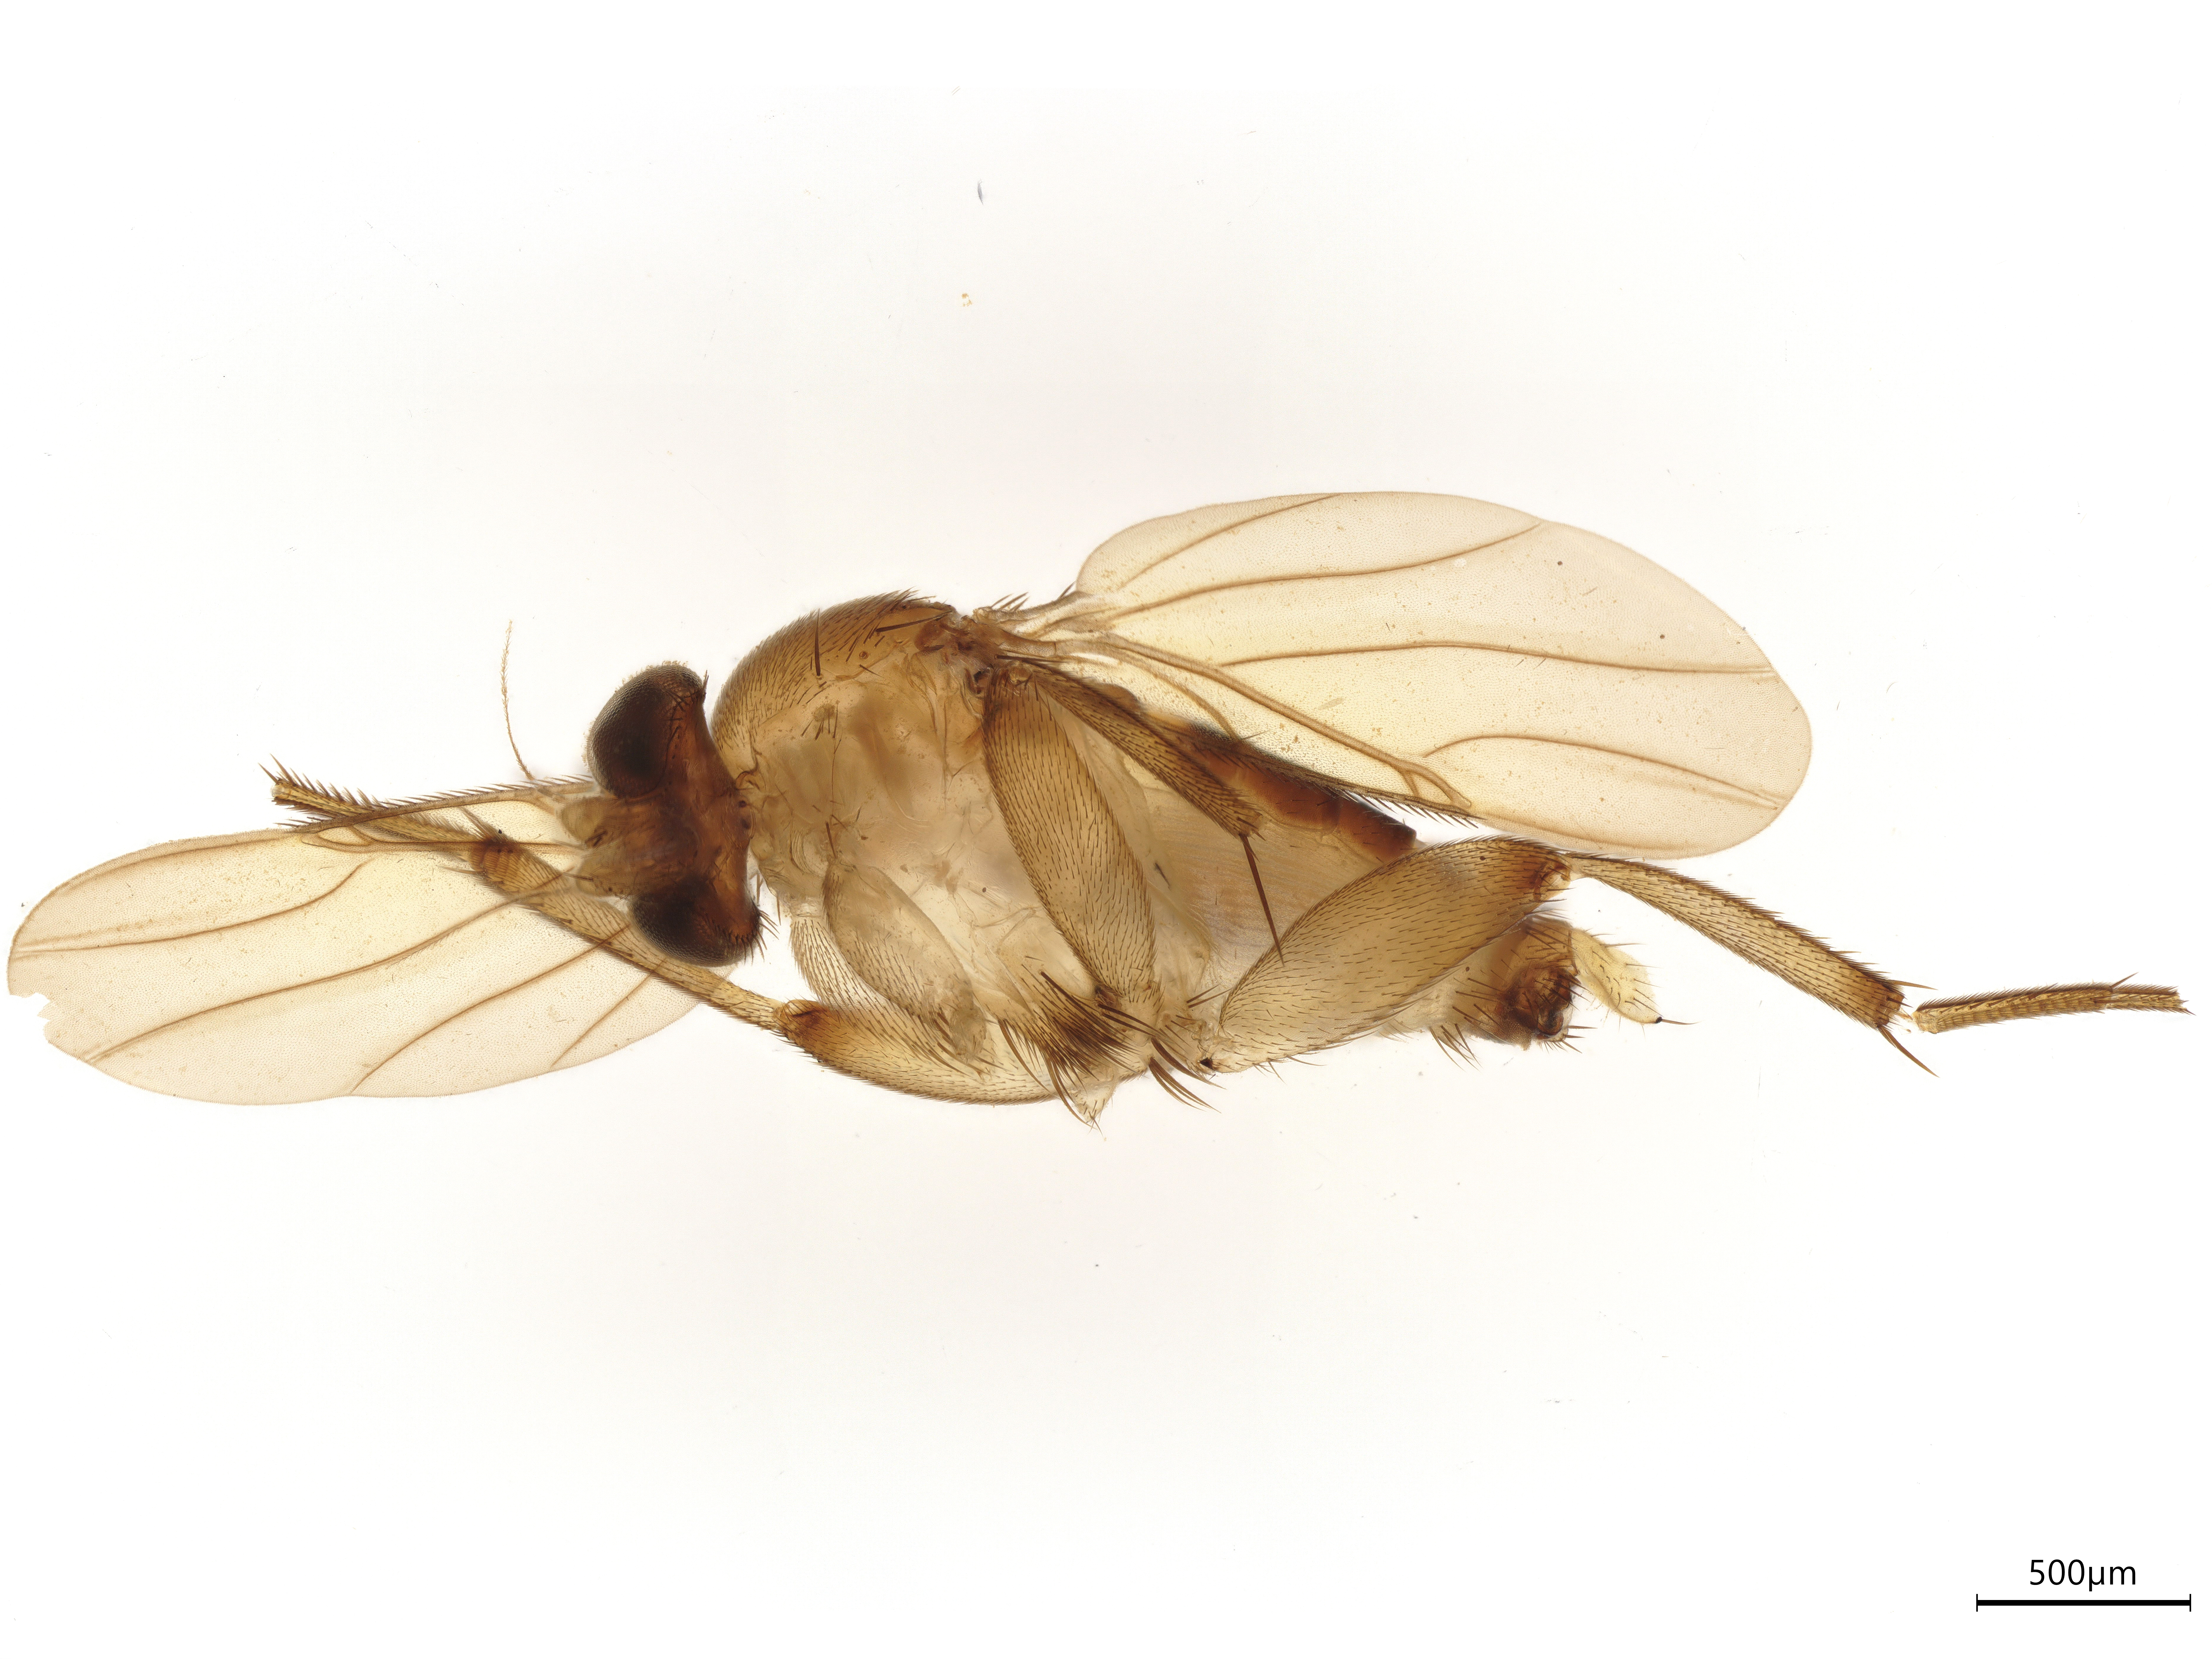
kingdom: Animalia
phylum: Arthropoda
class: Insecta
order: Diptera
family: Phoridae
